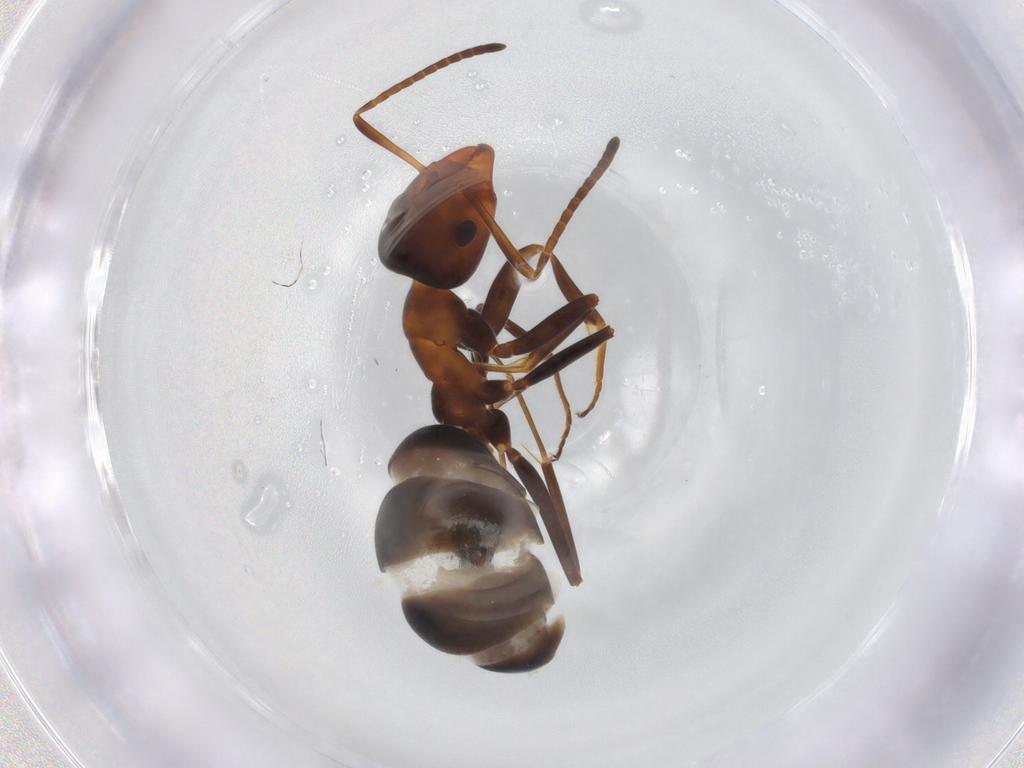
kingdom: Animalia
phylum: Arthropoda
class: Insecta
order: Hymenoptera
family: Formicidae
